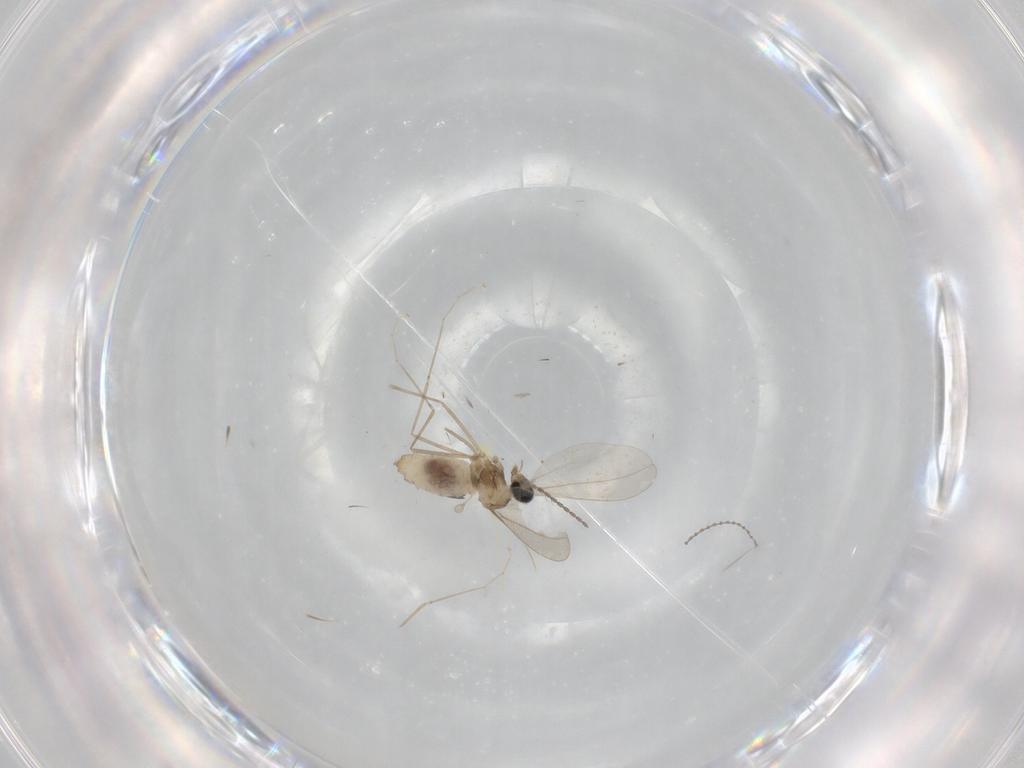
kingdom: Animalia
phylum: Arthropoda
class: Insecta
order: Diptera
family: Cecidomyiidae
